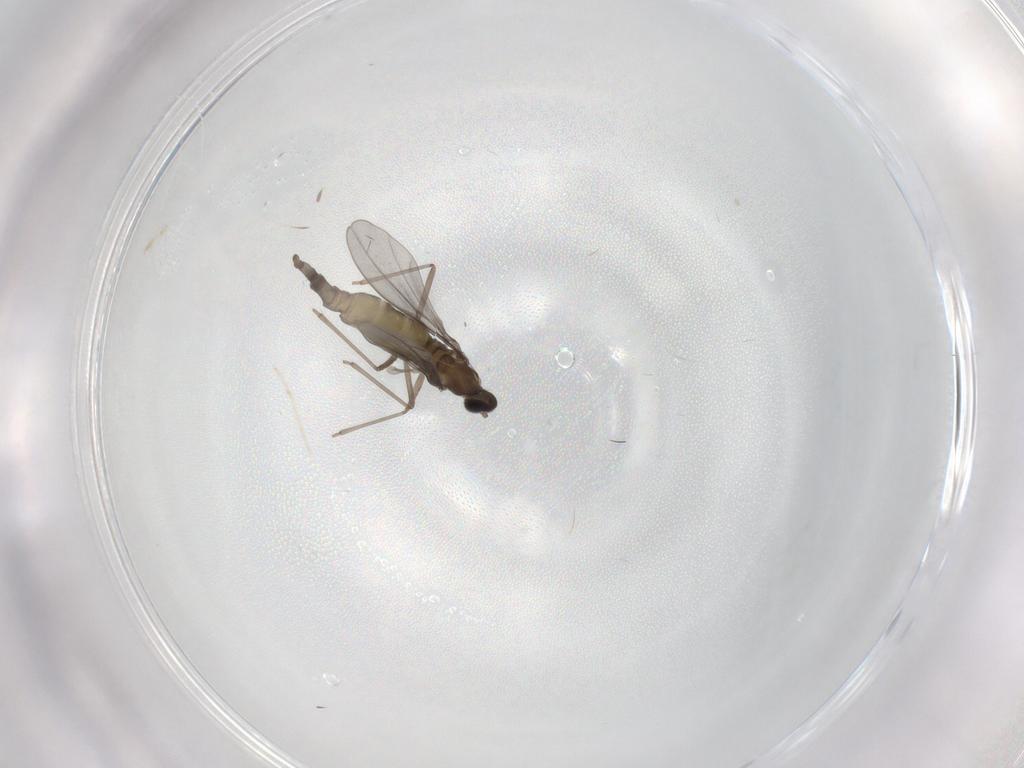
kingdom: Animalia
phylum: Arthropoda
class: Insecta
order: Diptera
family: Cecidomyiidae
